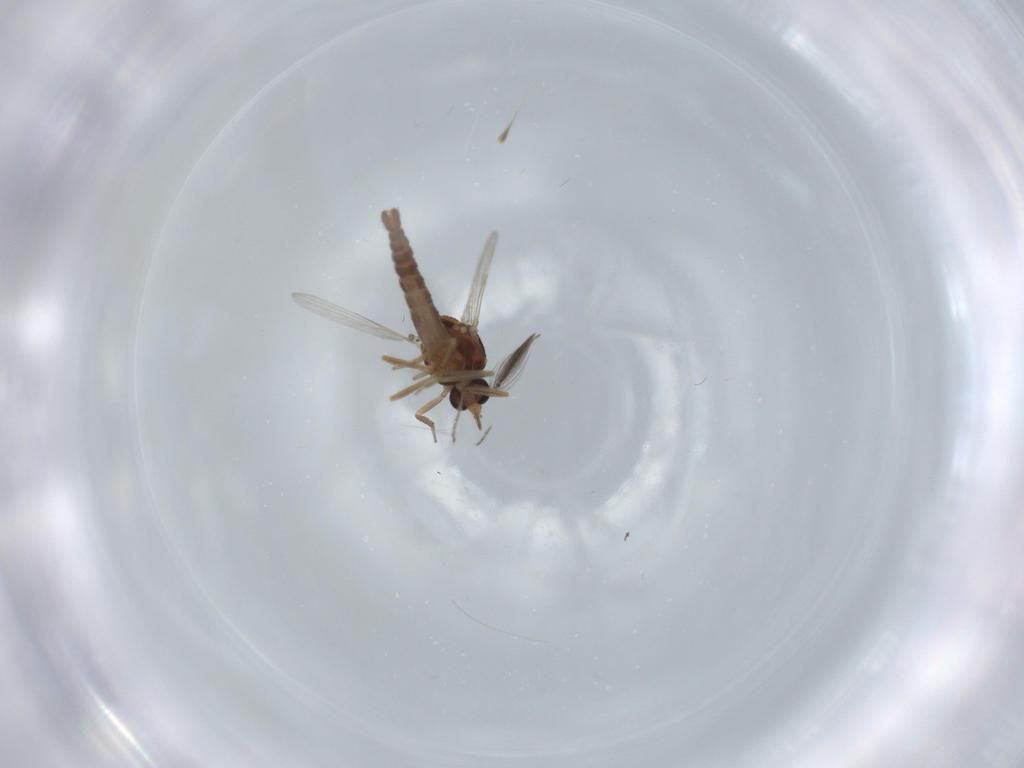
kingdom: Animalia
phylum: Arthropoda
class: Insecta
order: Diptera
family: Ceratopogonidae
